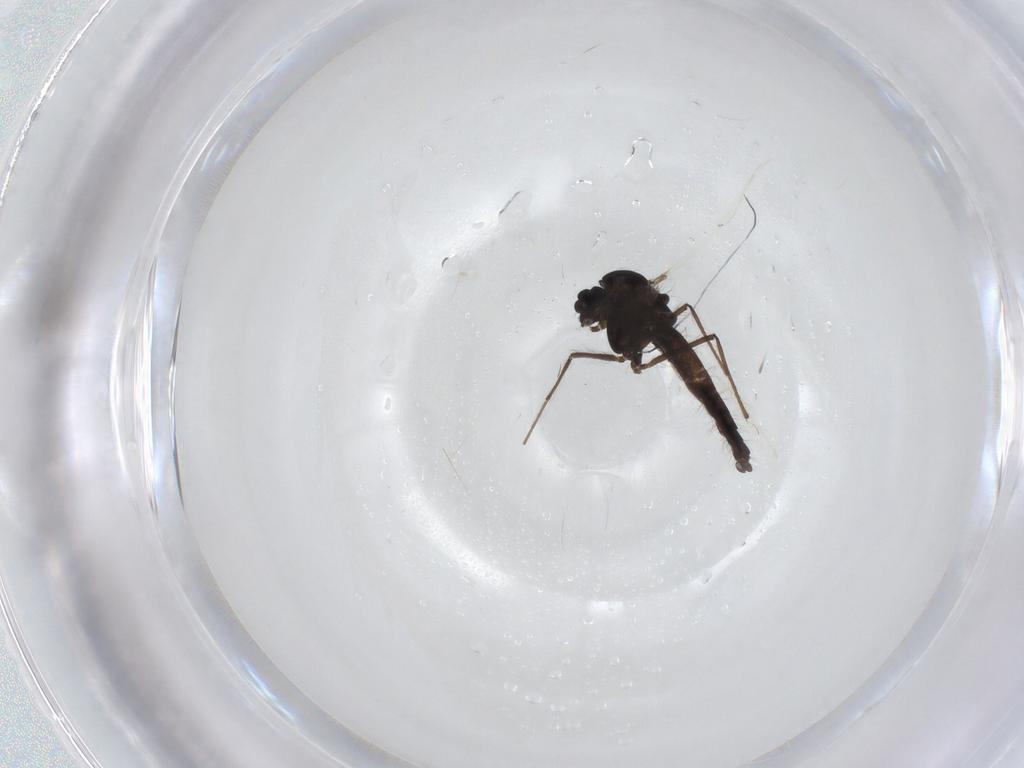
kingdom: Animalia
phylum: Arthropoda
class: Insecta
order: Diptera
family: Chironomidae
